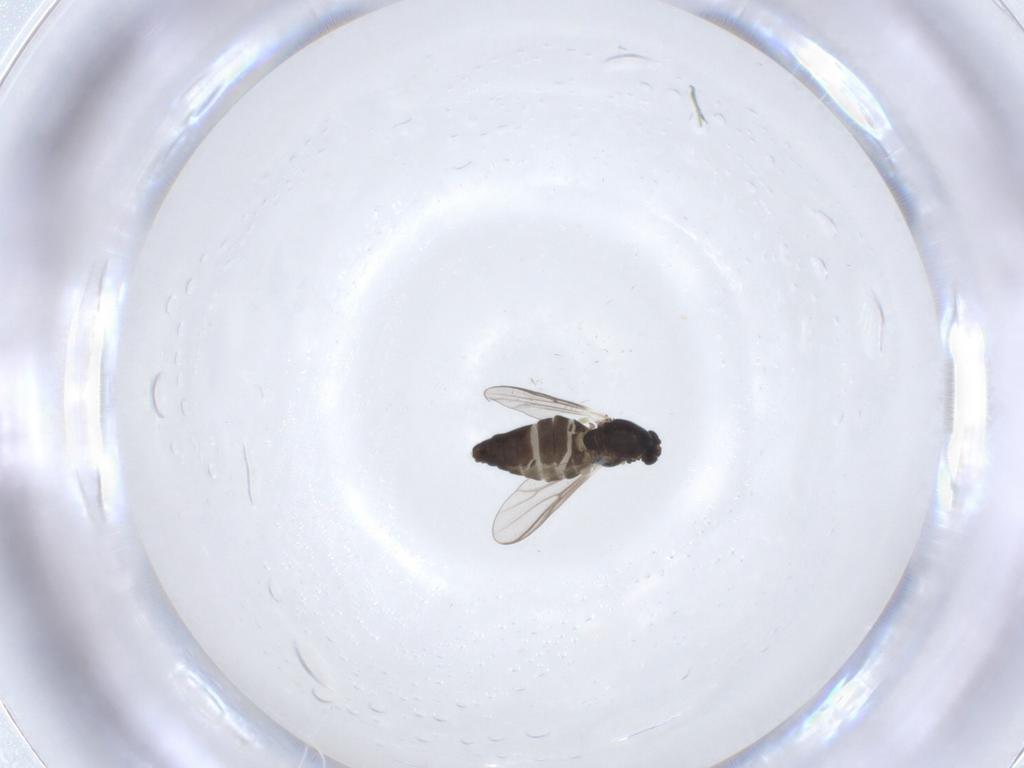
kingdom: Animalia
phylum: Arthropoda
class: Insecta
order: Diptera
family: Chironomidae
